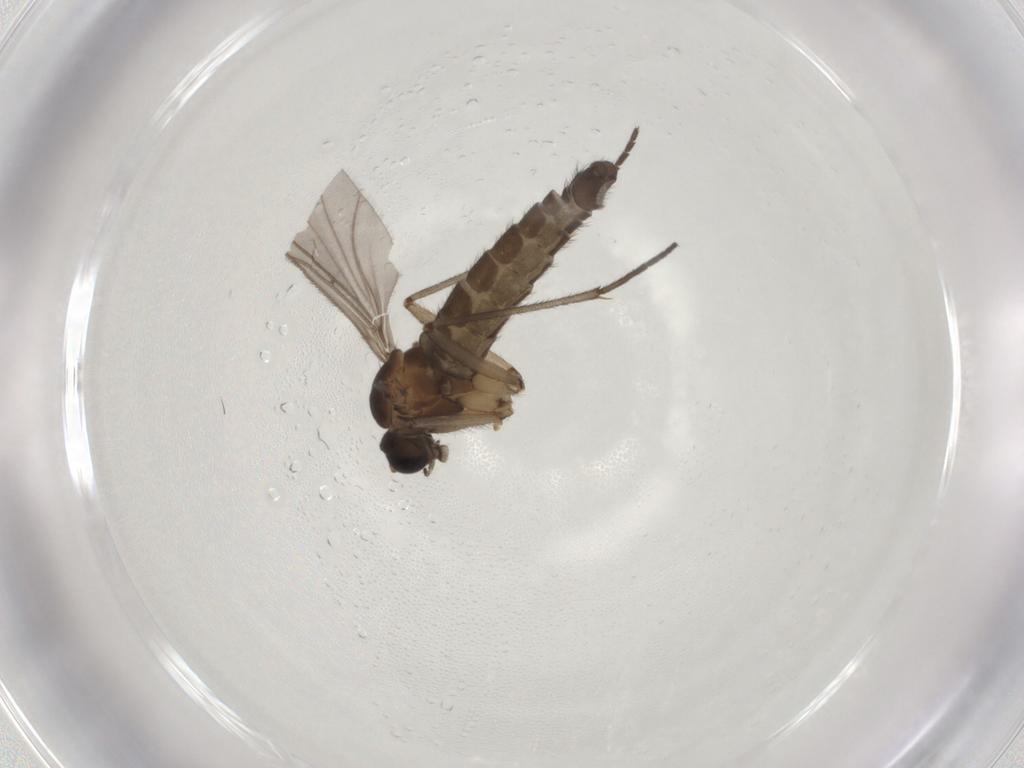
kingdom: Animalia
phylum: Arthropoda
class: Insecta
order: Diptera
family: Sciaridae
